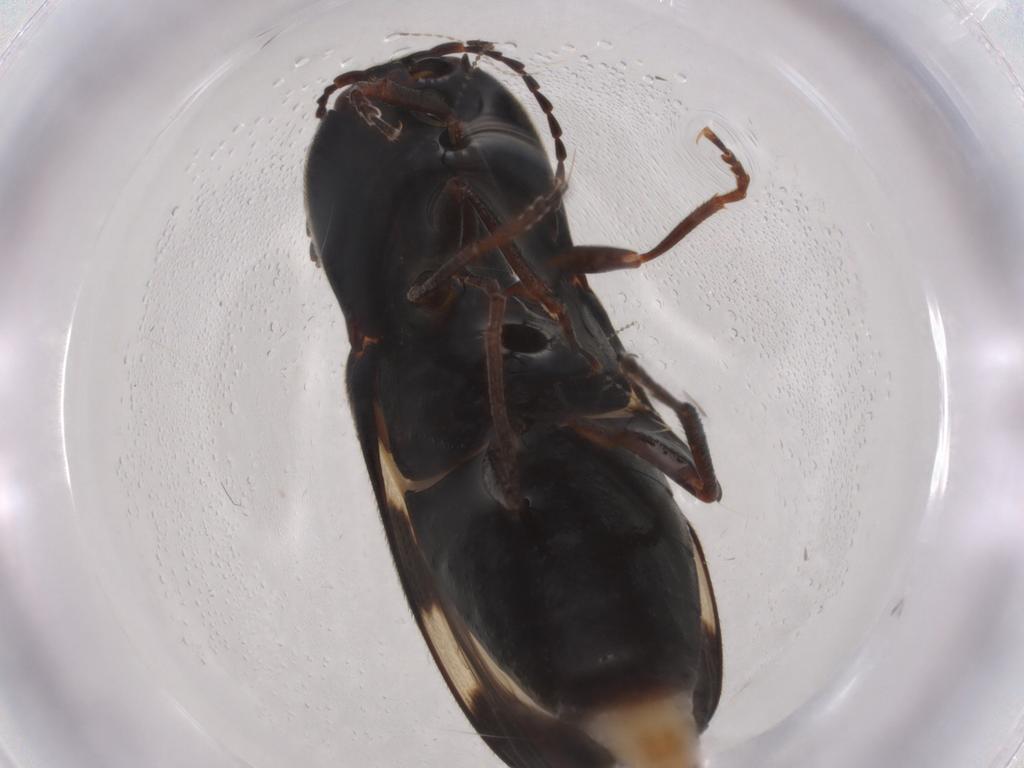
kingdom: Animalia
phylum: Arthropoda
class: Insecta
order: Coleoptera
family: Elateridae
